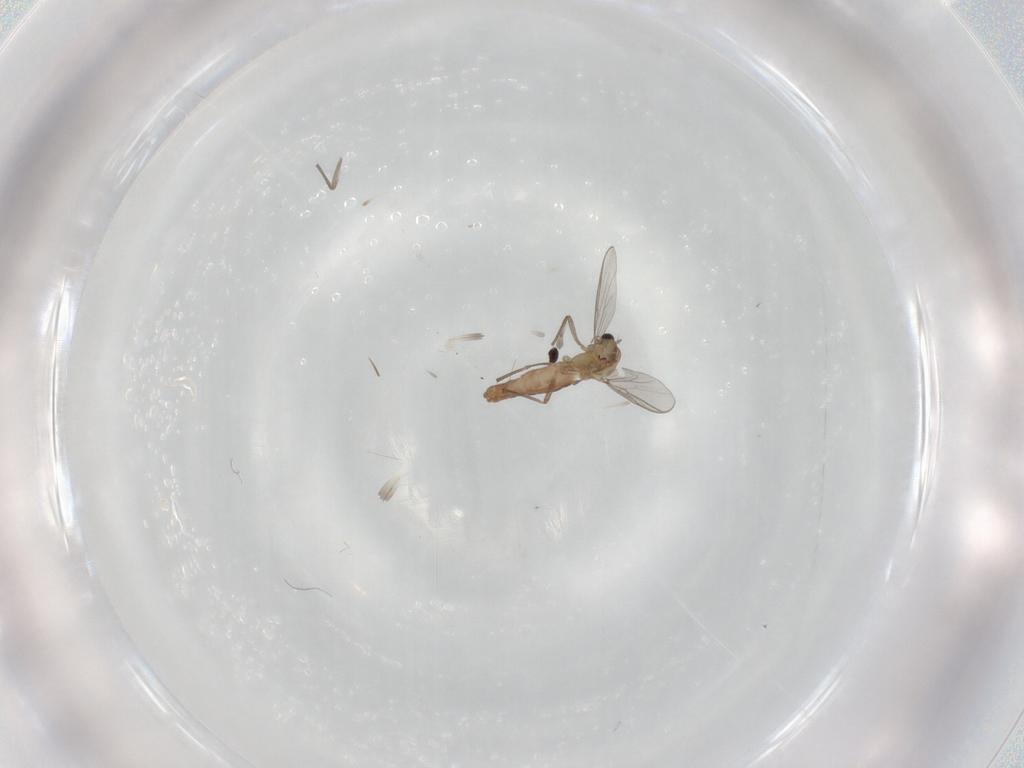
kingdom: Animalia
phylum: Arthropoda
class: Insecta
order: Diptera
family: Chironomidae
